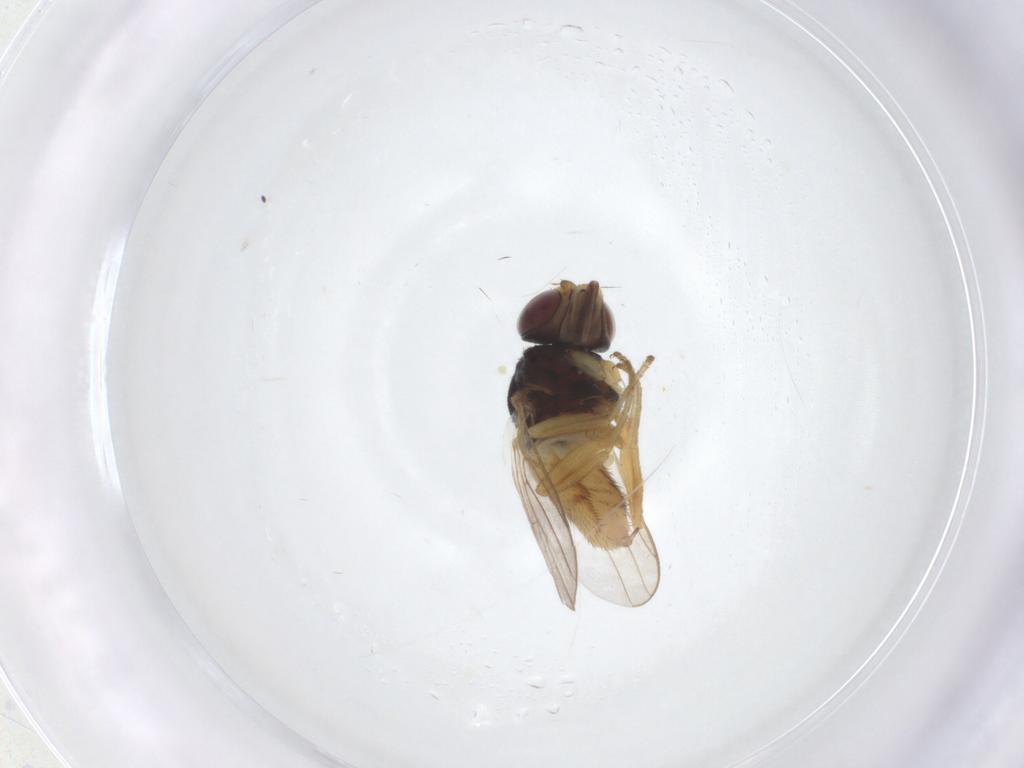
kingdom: Animalia
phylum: Arthropoda
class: Insecta
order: Diptera
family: Chloropidae
